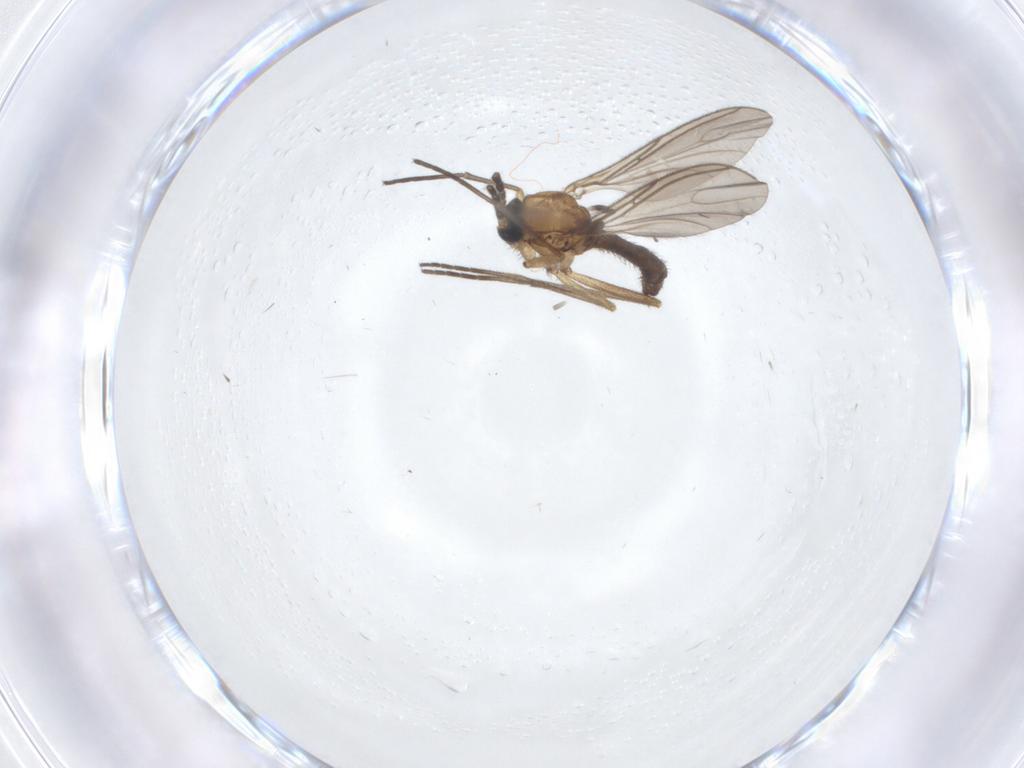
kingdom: Animalia
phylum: Arthropoda
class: Insecta
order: Diptera
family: Sciaridae
